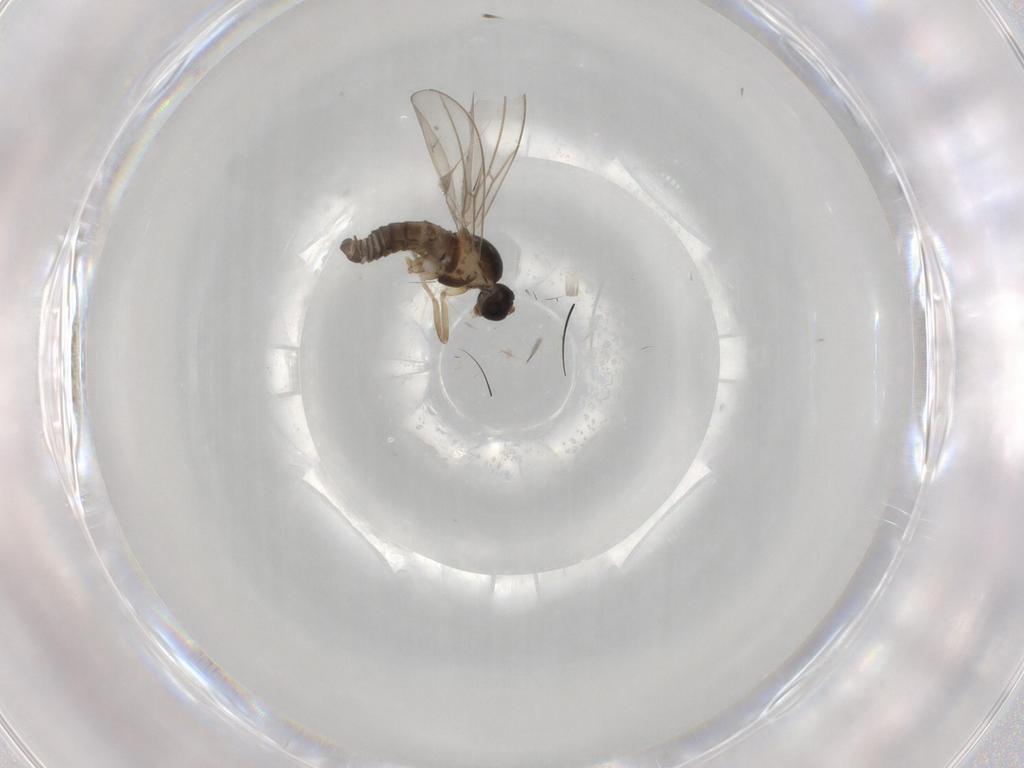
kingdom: Animalia
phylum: Arthropoda
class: Insecta
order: Diptera
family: Cecidomyiidae
